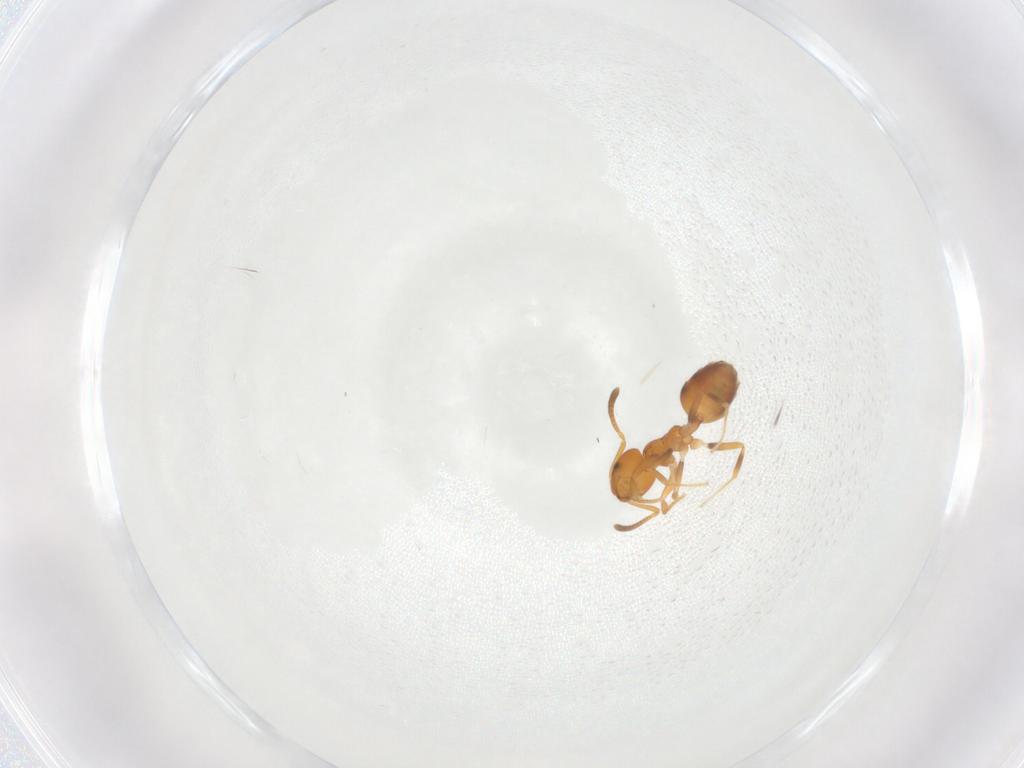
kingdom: Animalia
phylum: Arthropoda
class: Insecta
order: Hymenoptera
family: Formicidae
